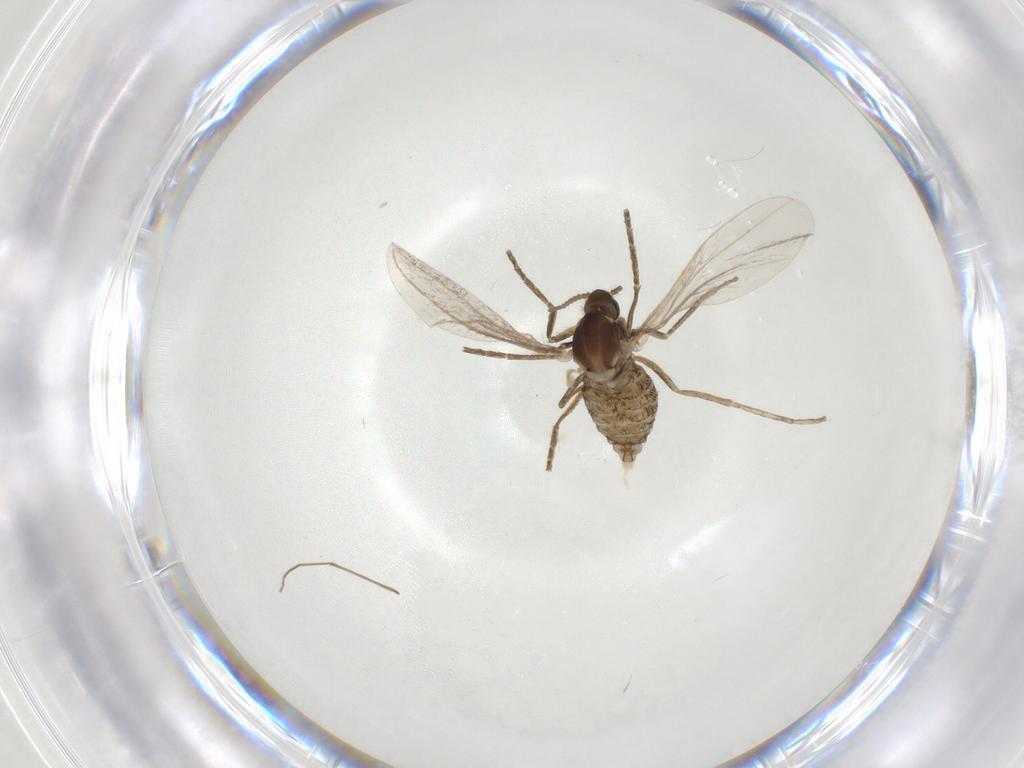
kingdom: Animalia
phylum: Arthropoda
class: Insecta
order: Diptera
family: Cecidomyiidae
